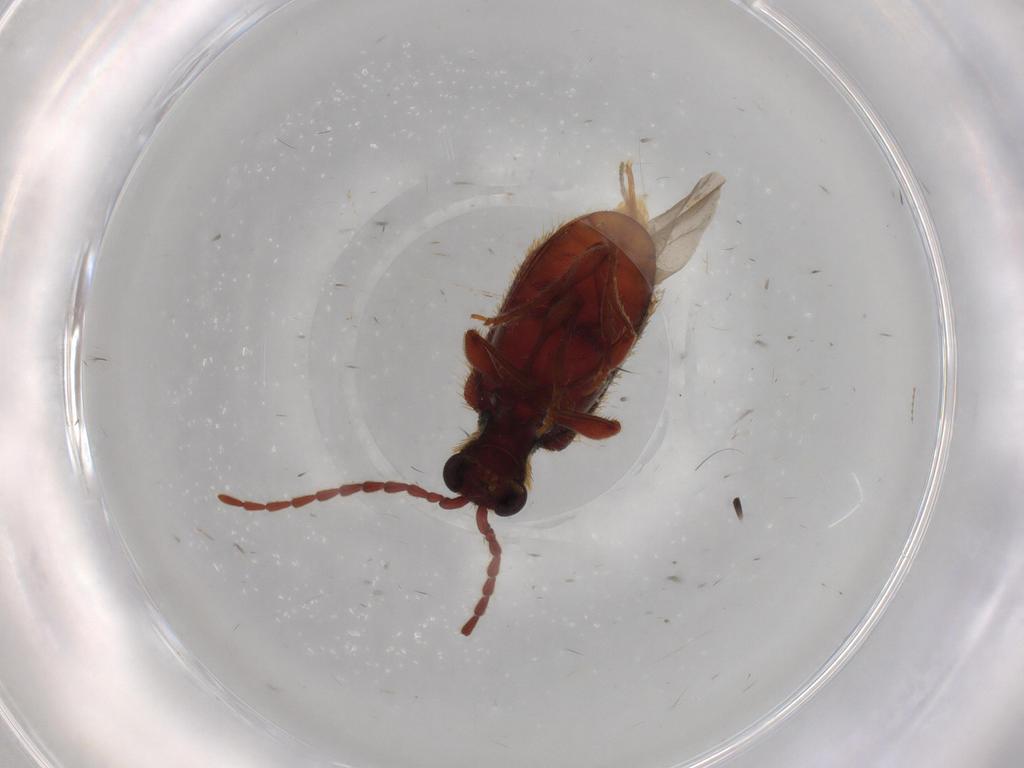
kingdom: Animalia
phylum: Arthropoda
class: Insecta
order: Coleoptera
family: Ptinidae
